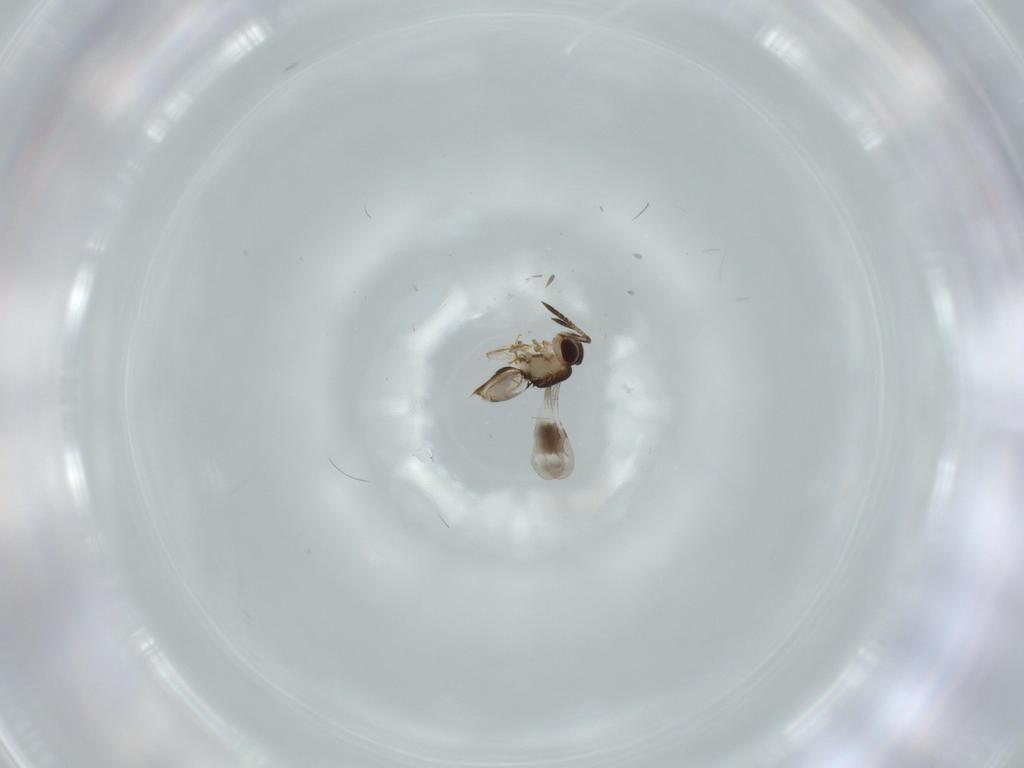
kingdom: Animalia
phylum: Arthropoda
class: Insecta
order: Hymenoptera
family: Ceraphronidae
